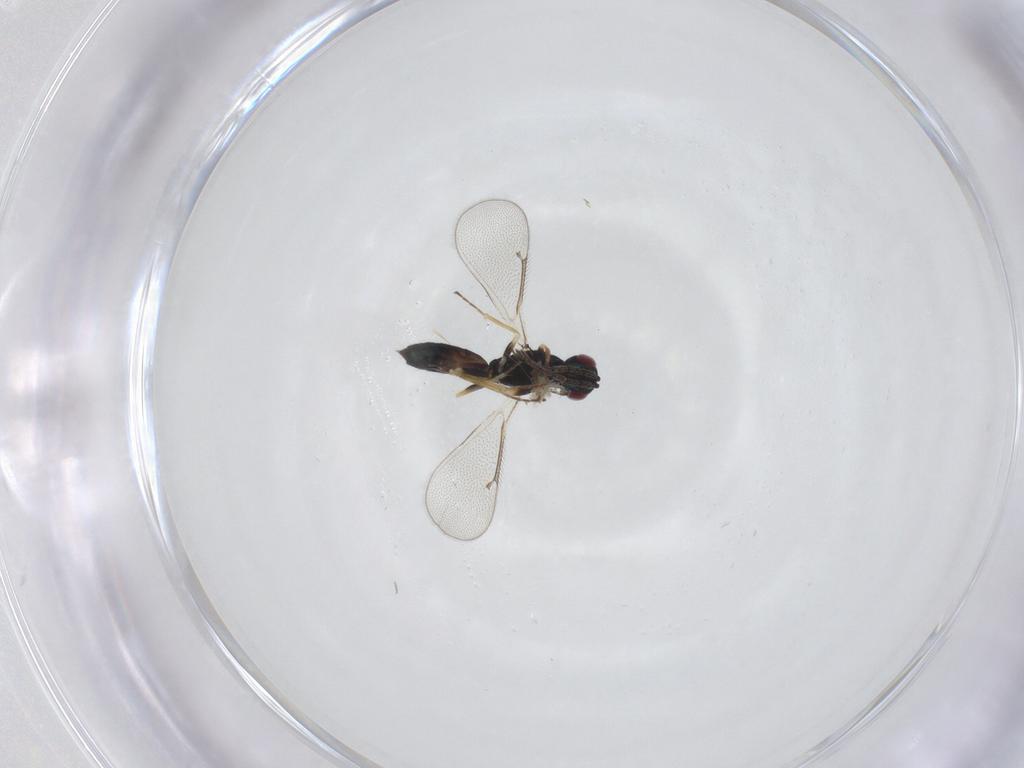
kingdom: Animalia
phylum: Arthropoda
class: Insecta
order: Hymenoptera
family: Eulophidae
